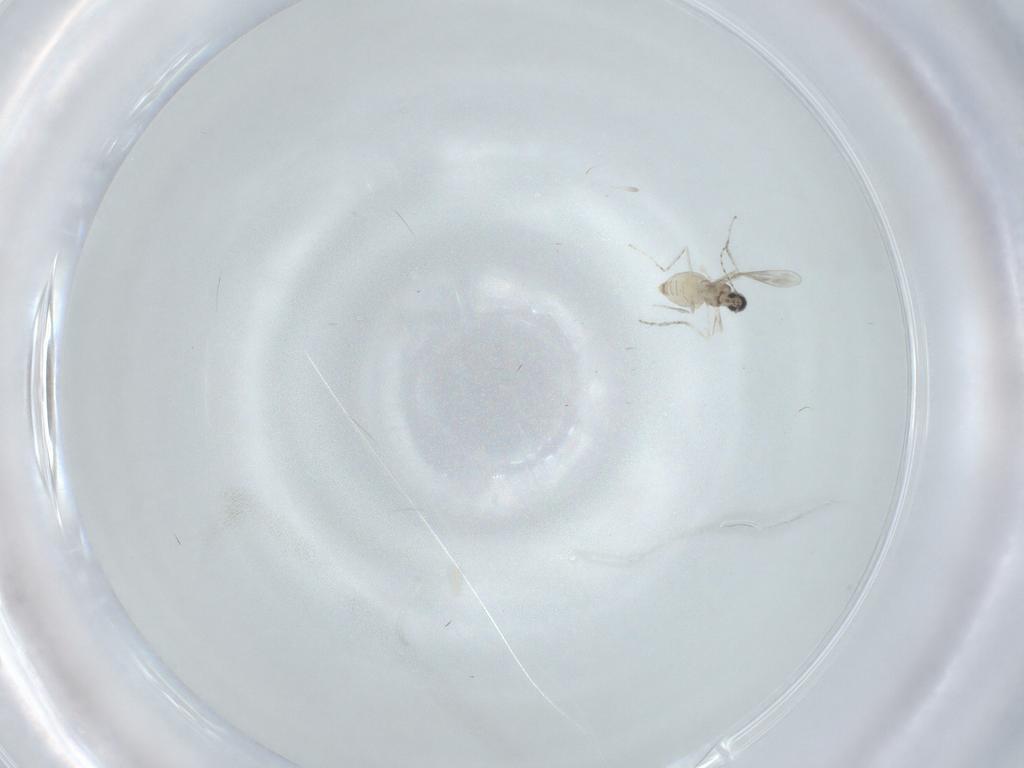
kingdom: Animalia
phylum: Arthropoda
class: Insecta
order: Diptera
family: Cecidomyiidae
